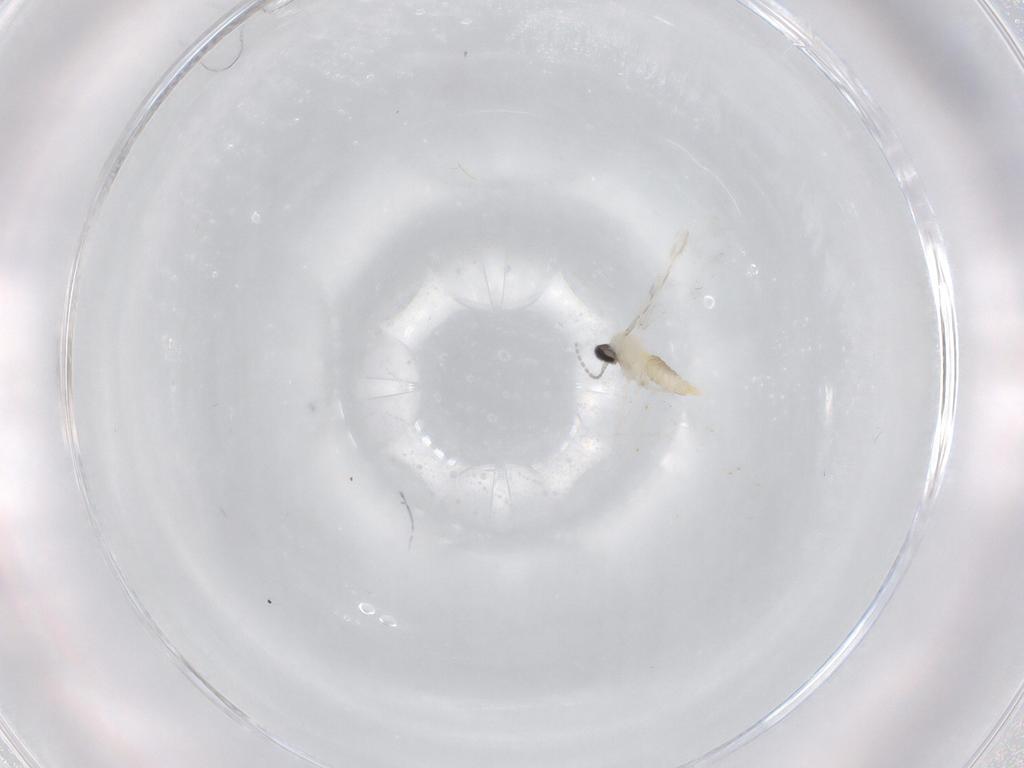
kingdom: Animalia
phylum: Arthropoda
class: Insecta
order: Diptera
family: Cecidomyiidae
